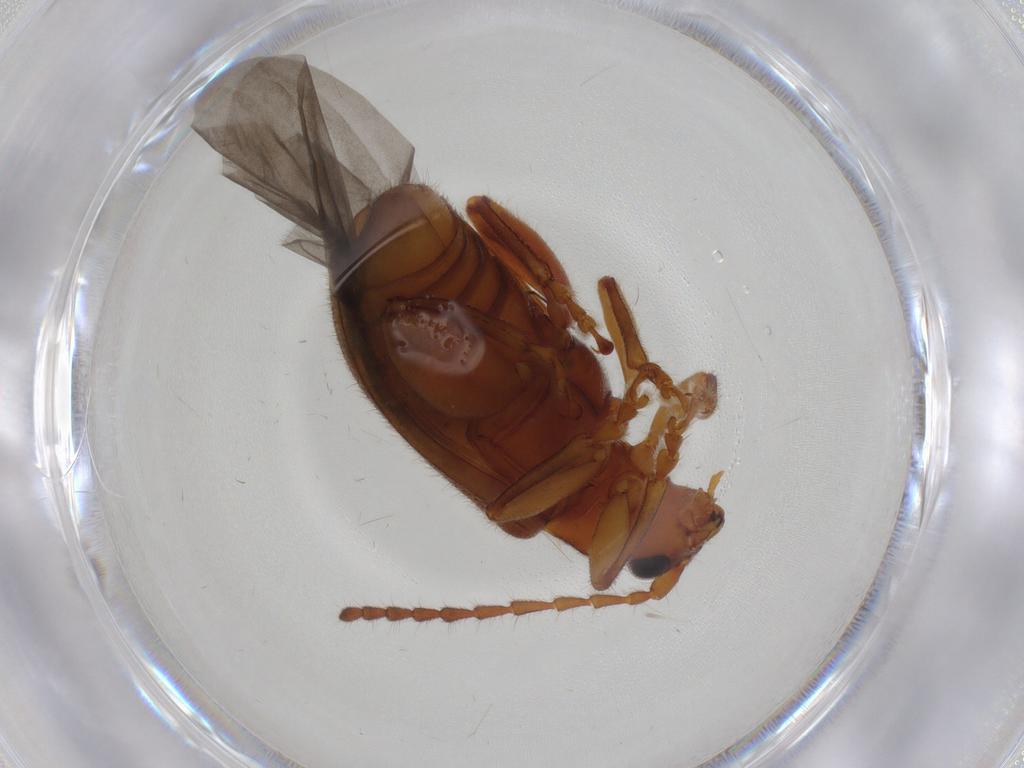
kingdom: Animalia
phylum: Arthropoda
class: Insecta
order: Coleoptera
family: Chrysomelidae
